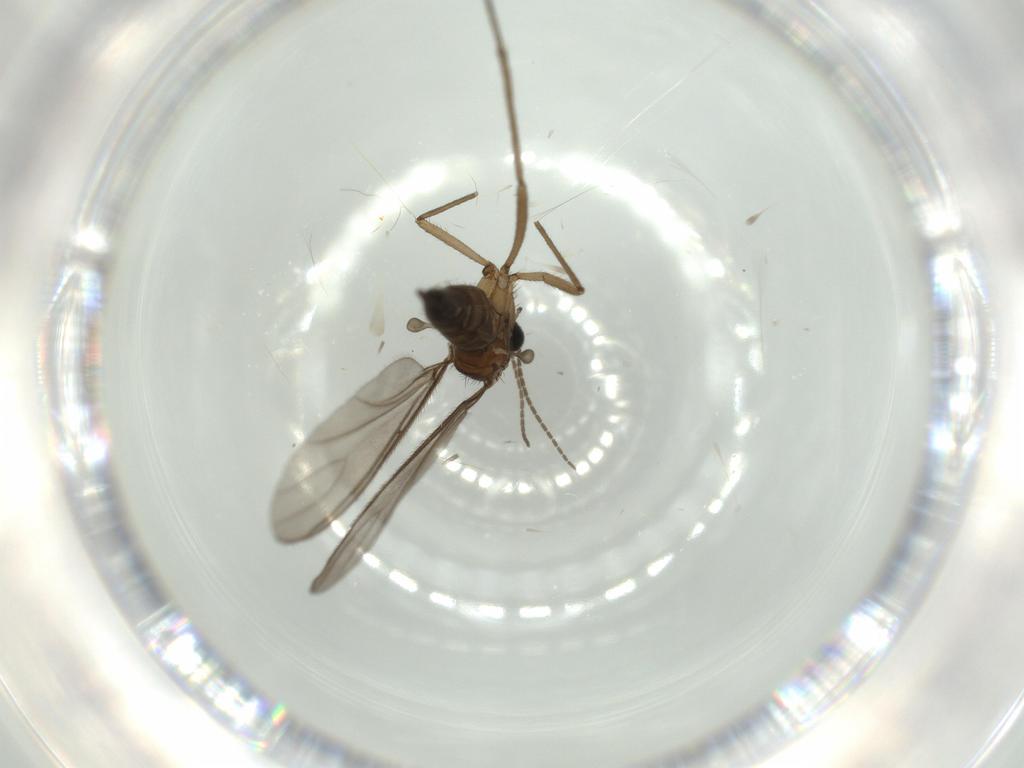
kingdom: Animalia
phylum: Arthropoda
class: Insecta
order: Diptera
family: Sciaridae
